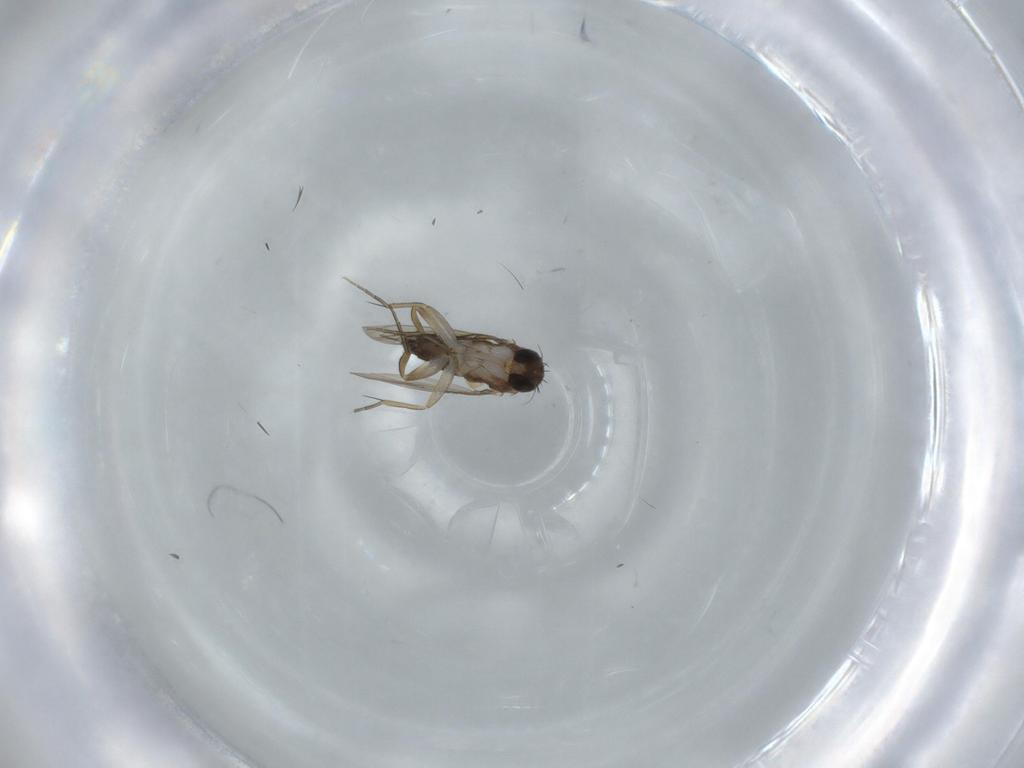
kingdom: Animalia
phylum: Arthropoda
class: Insecta
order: Diptera
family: Phoridae
